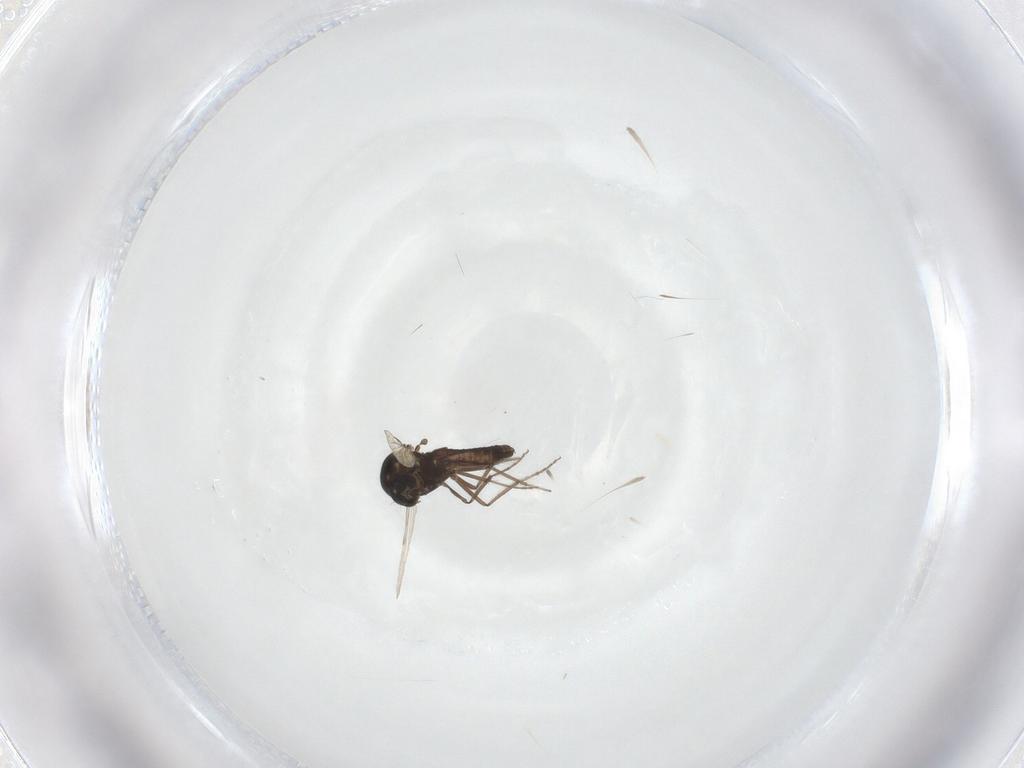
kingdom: Animalia
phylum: Arthropoda
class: Insecta
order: Diptera
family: Ceratopogonidae
